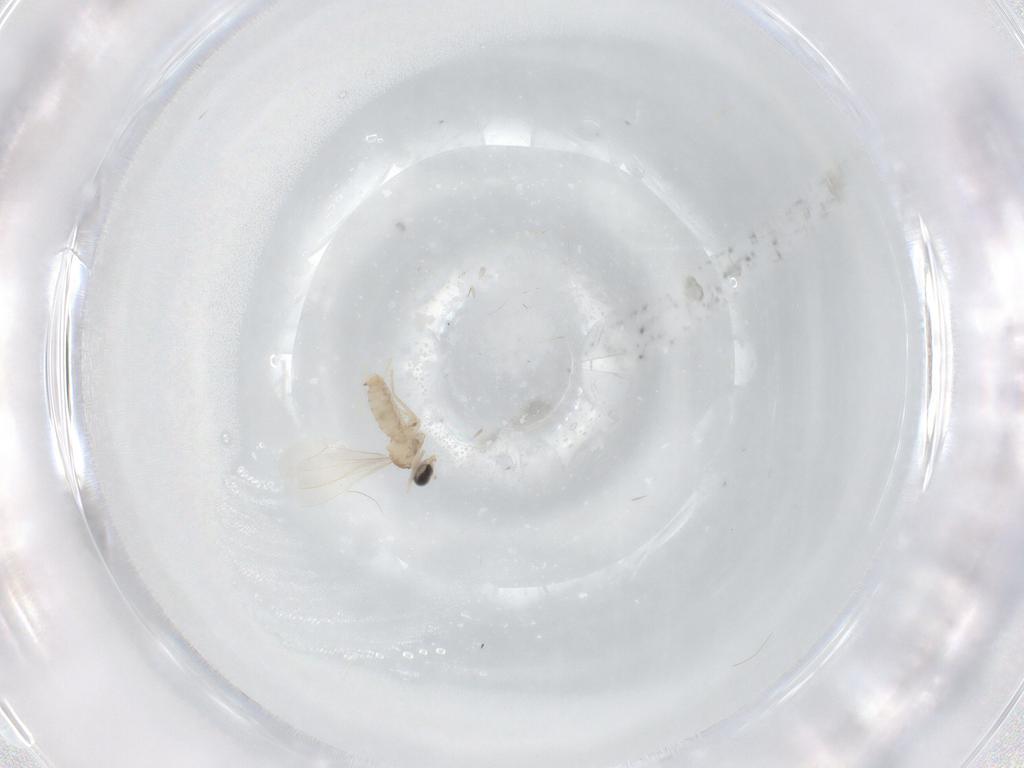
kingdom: Animalia
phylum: Arthropoda
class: Insecta
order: Diptera
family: Cecidomyiidae
